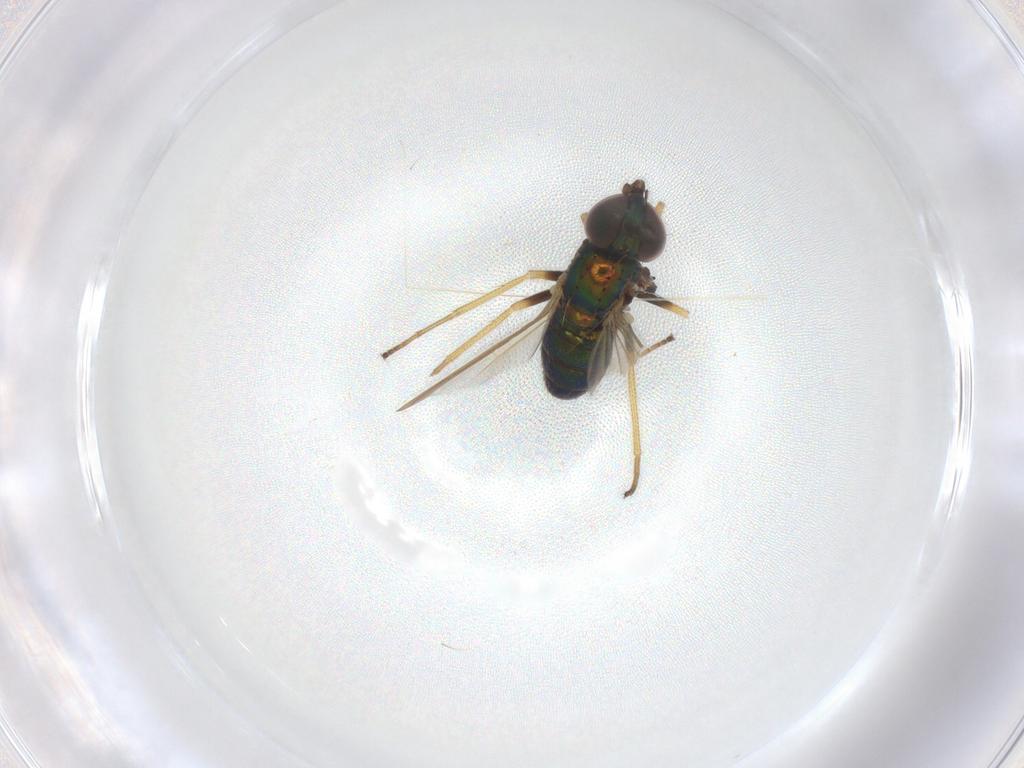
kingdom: Animalia
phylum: Arthropoda
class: Insecta
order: Diptera
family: Dolichopodidae
